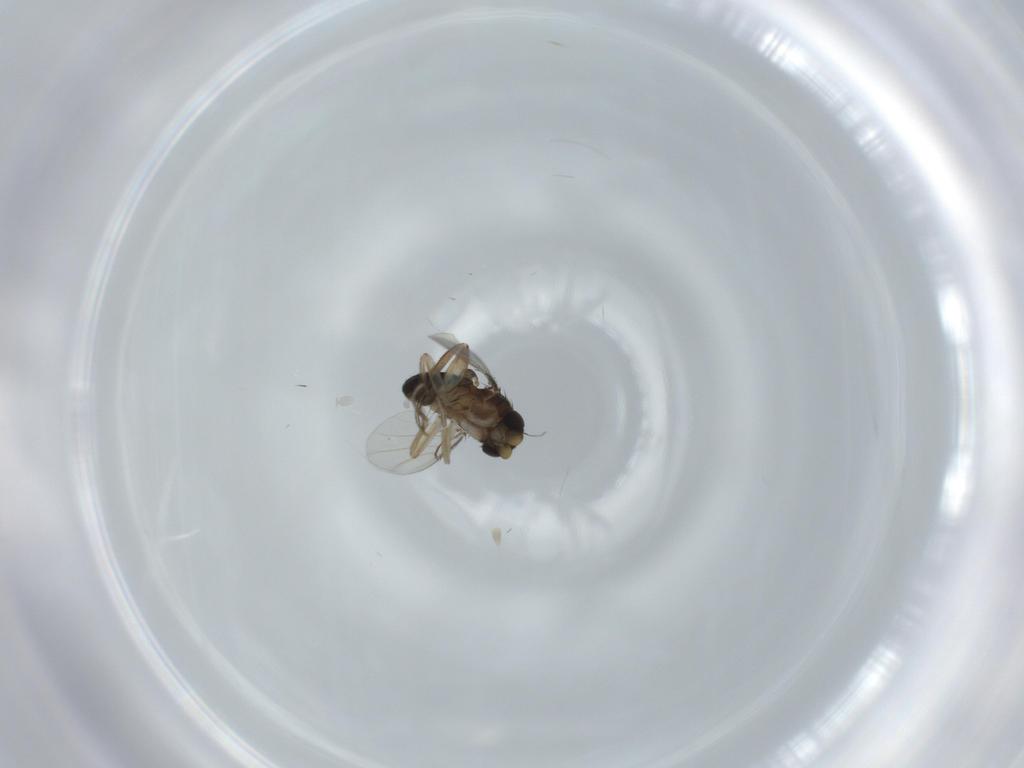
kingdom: Animalia
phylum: Arthropoda
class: Insecta
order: Diptera
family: Phoridae
